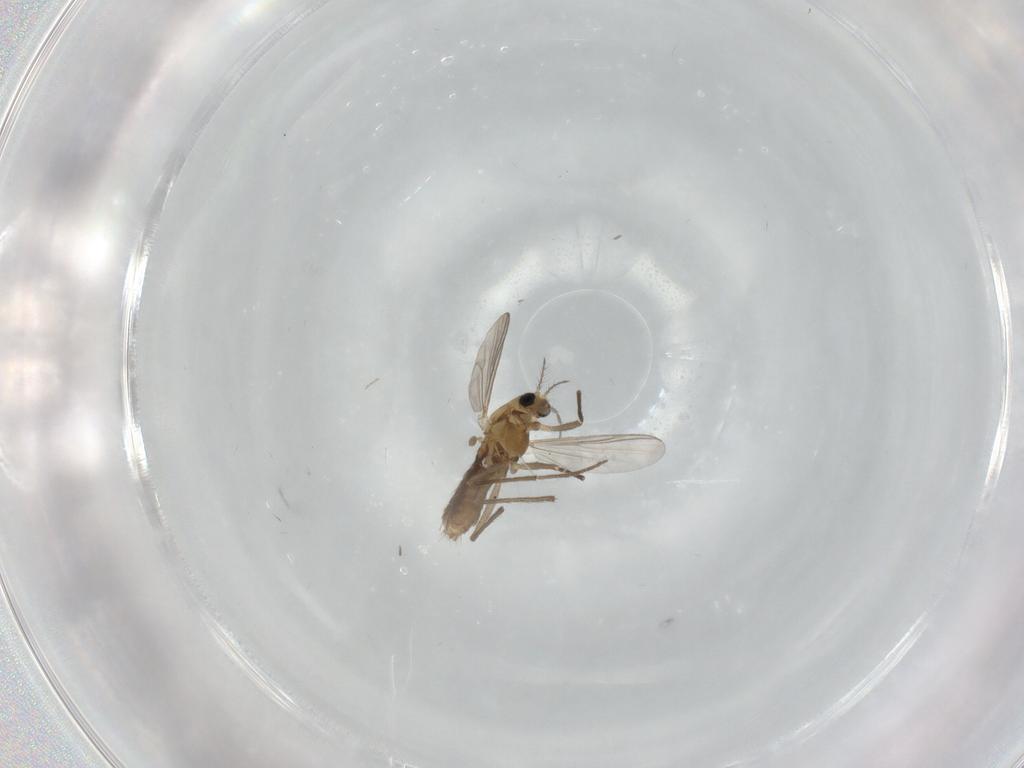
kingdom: Animalia
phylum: Arthropoda
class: Insecta
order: Diptera
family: Chironomidae
